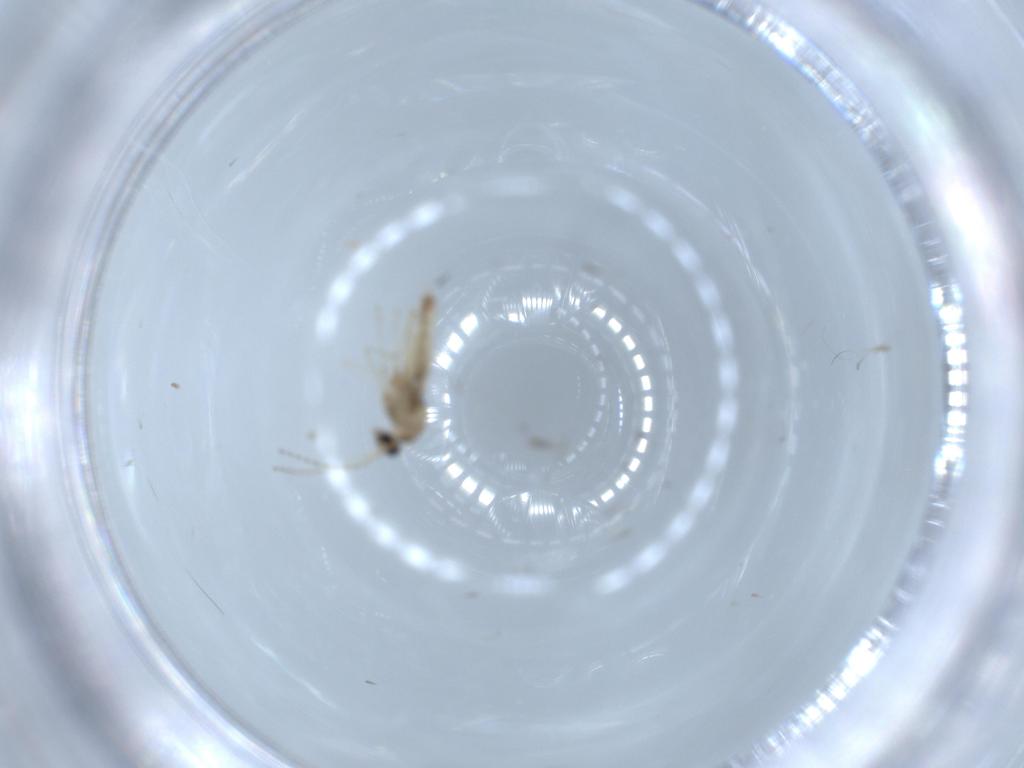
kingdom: Animalia
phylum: Arthropoda
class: Insecta
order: Diptera
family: Cecidomyiidae
